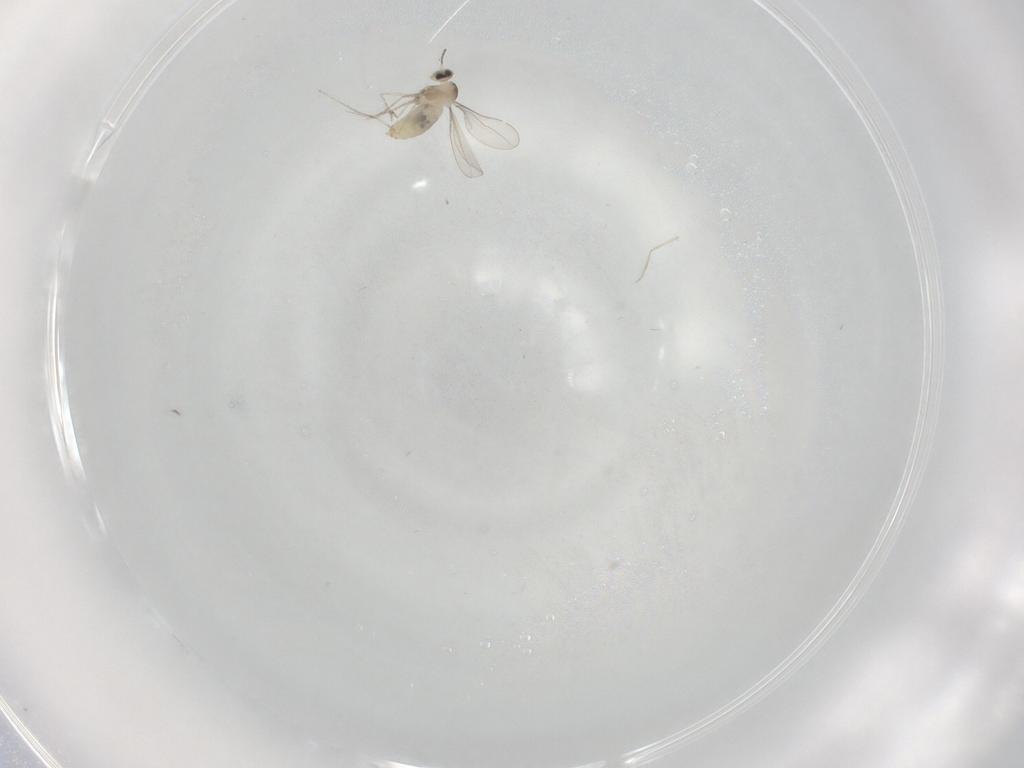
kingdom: Animalia
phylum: Arthropoda
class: Insecta
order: Diptera
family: Cecidomyiidae
